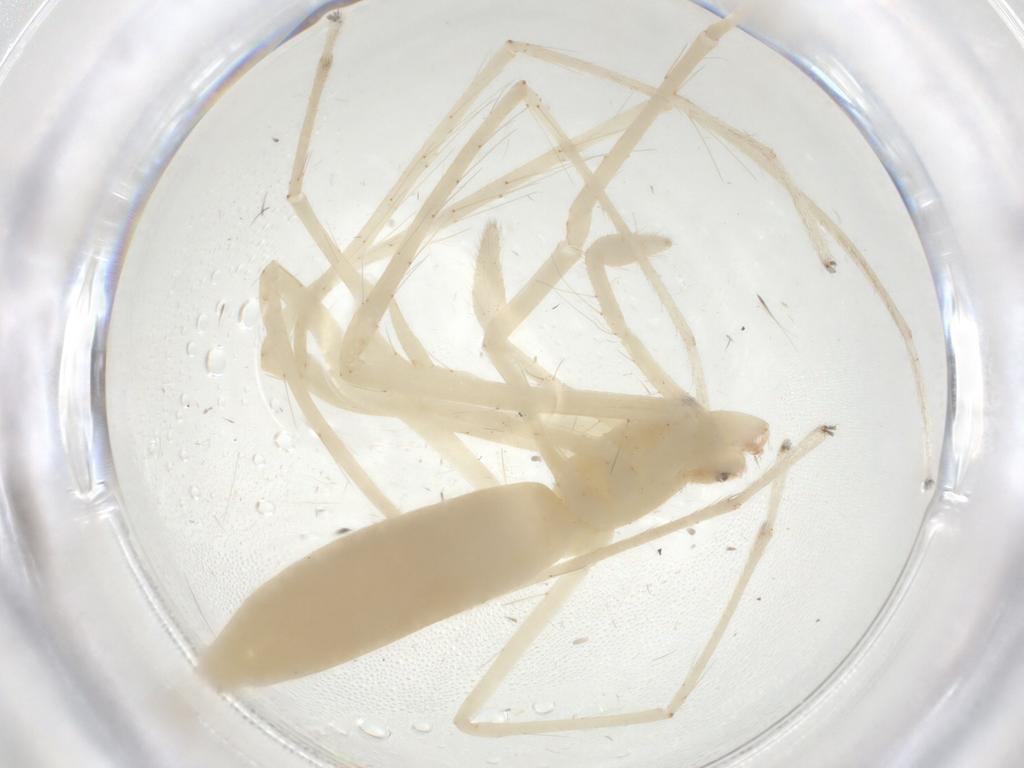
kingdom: Animalia
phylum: Arthropoda
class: Arachnida
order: Araneae
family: Anyphaenidae
